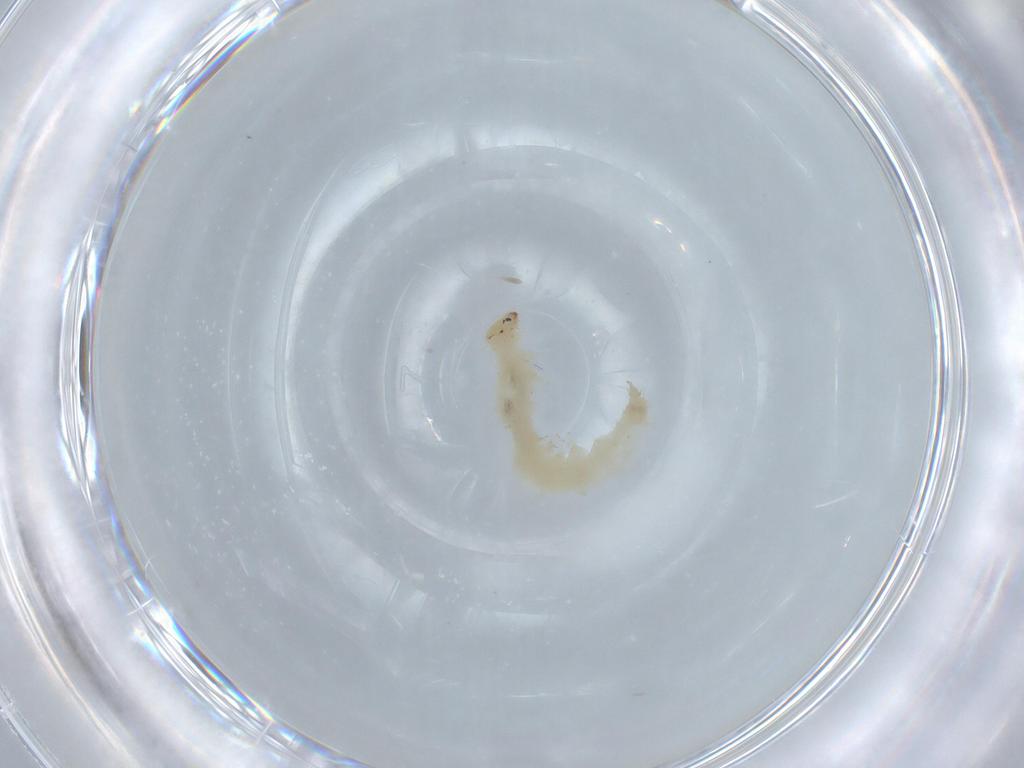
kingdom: Animalia
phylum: Arthropoda
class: Insecta
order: Lepidoptera
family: Crambidae
